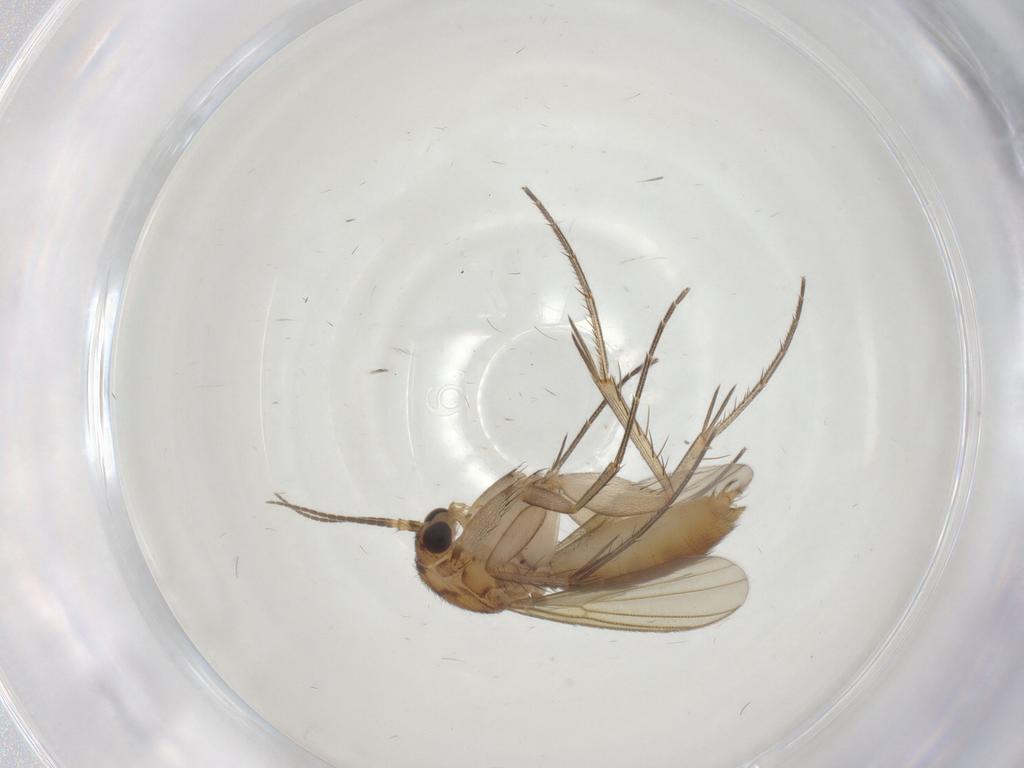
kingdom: Animalia
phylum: Arthropoda
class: Insecta
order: Diptera
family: Mycetophilidae
